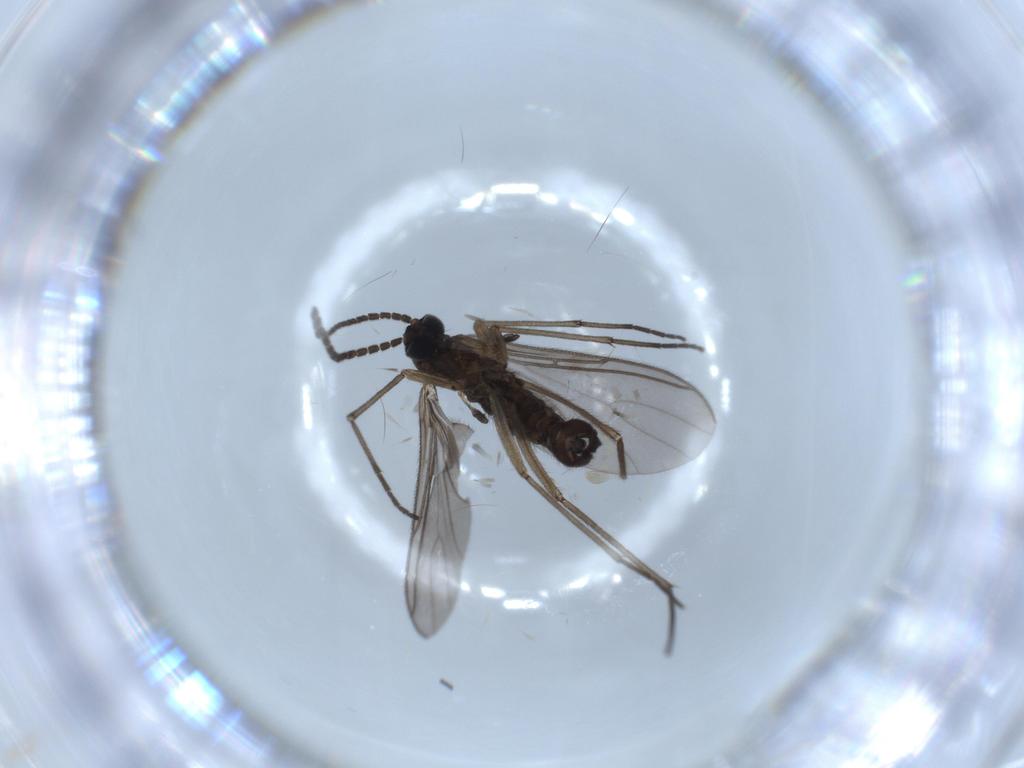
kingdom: Animalia
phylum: Arthropoda
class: Insecta
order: Diptera
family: Sciaridae
